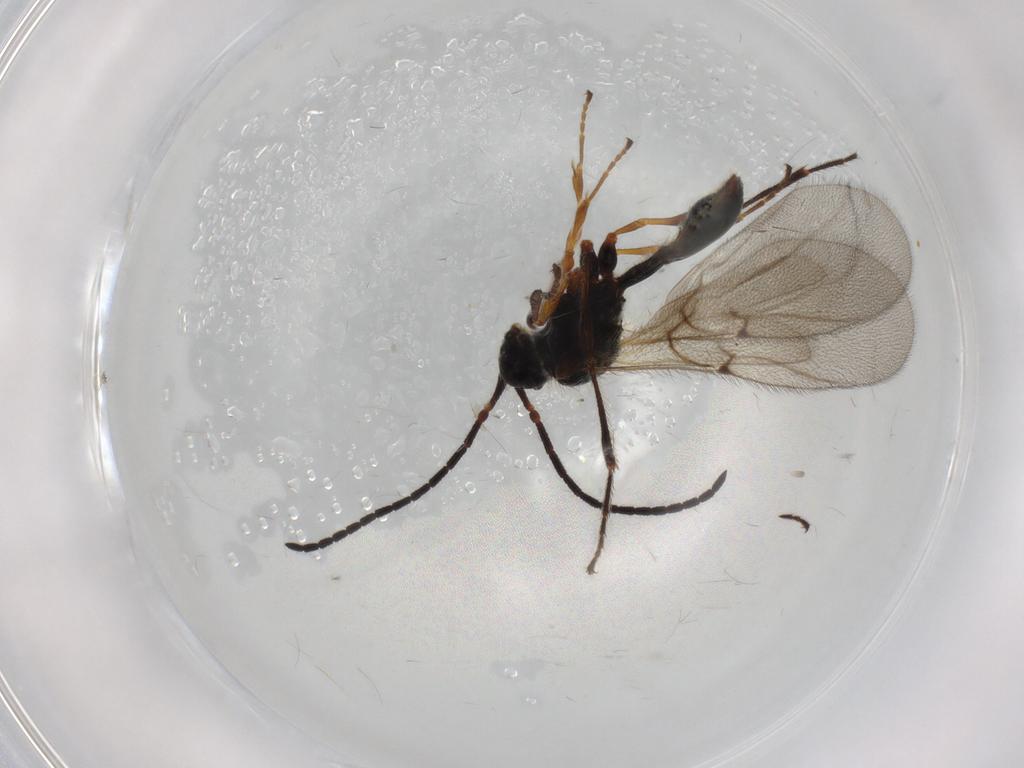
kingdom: Animalia
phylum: Arthropoda
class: Insecta
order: Hymenoptera
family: Diapriidae
